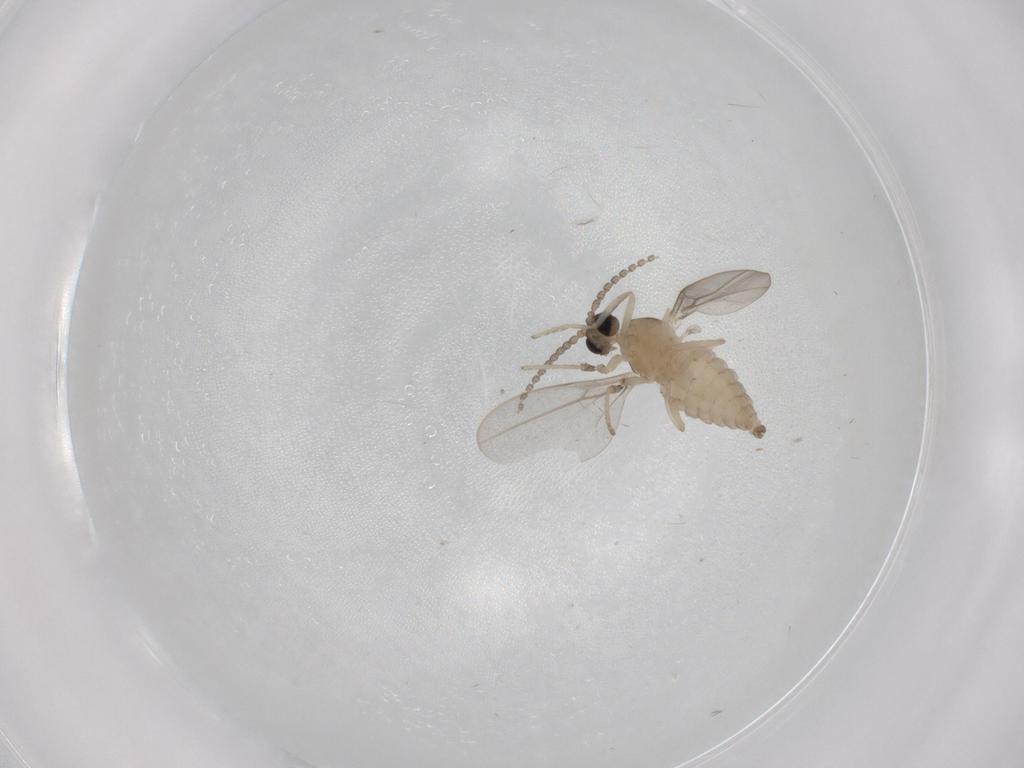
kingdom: Animalia
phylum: Arthropoda
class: Insecta
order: Diptera
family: Cecidomyiidae
